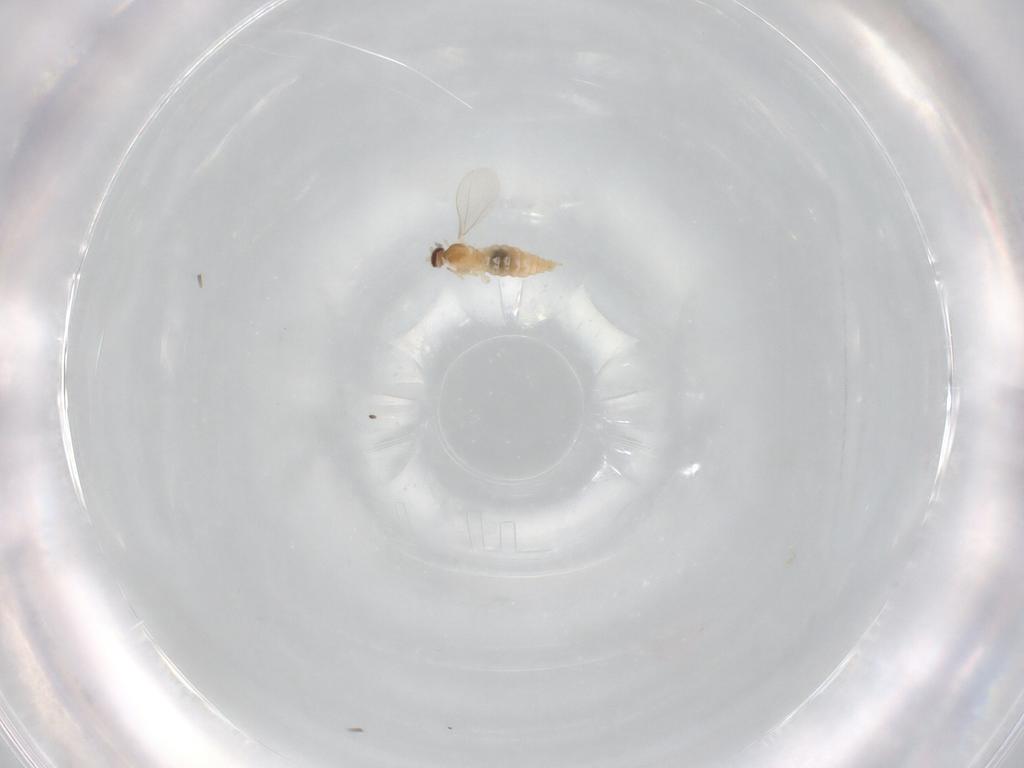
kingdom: Animalia
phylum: Arthropoda
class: Insecta
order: Diptera
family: Cecidomyiidae
